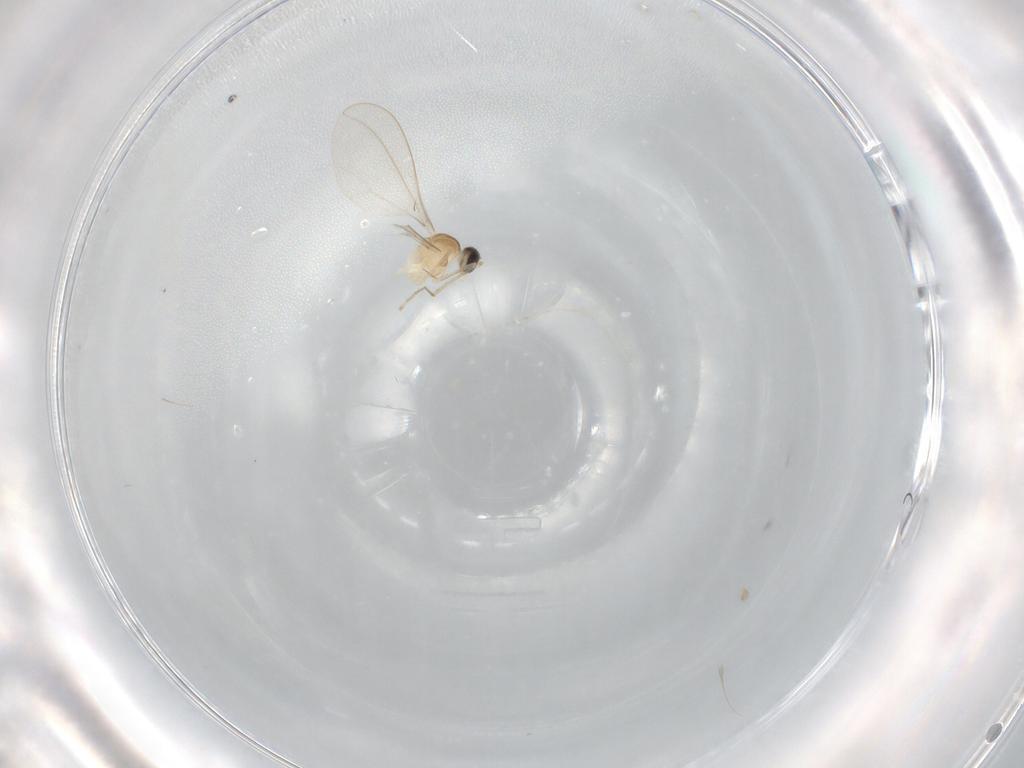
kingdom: Animalia
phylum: Arthropoda
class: Insecta
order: Diptera
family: Cecidomyiidae
